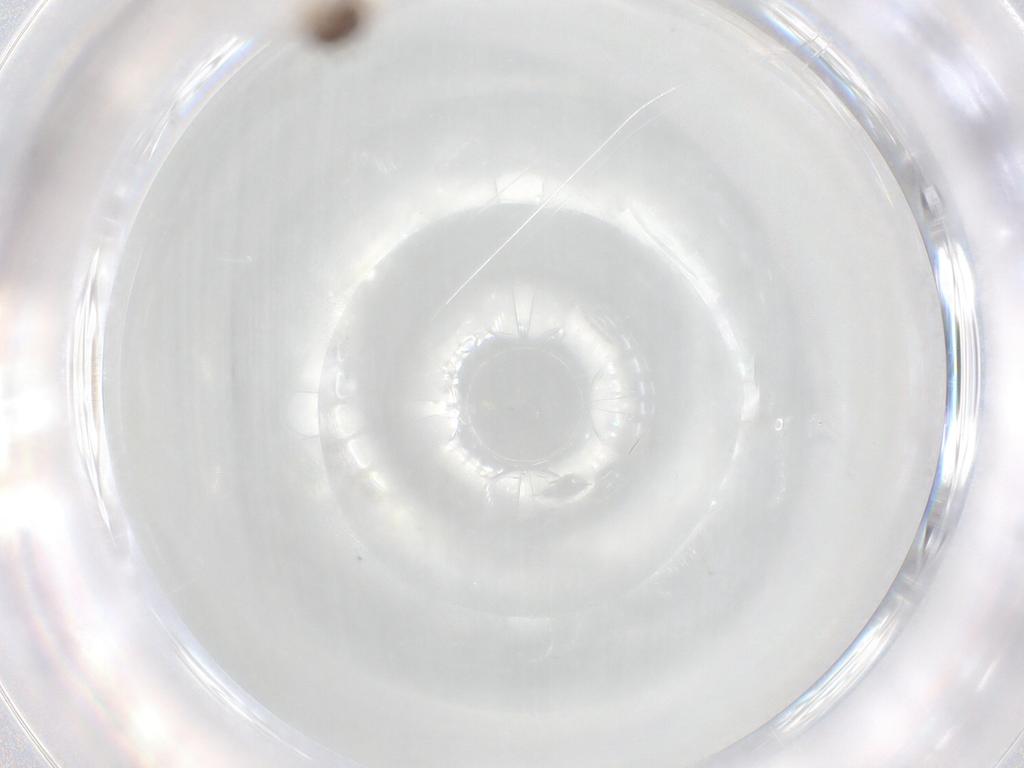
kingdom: Animalia
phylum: Arthropoda
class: Insecta
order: Diptera
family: Ceratopogonidae
